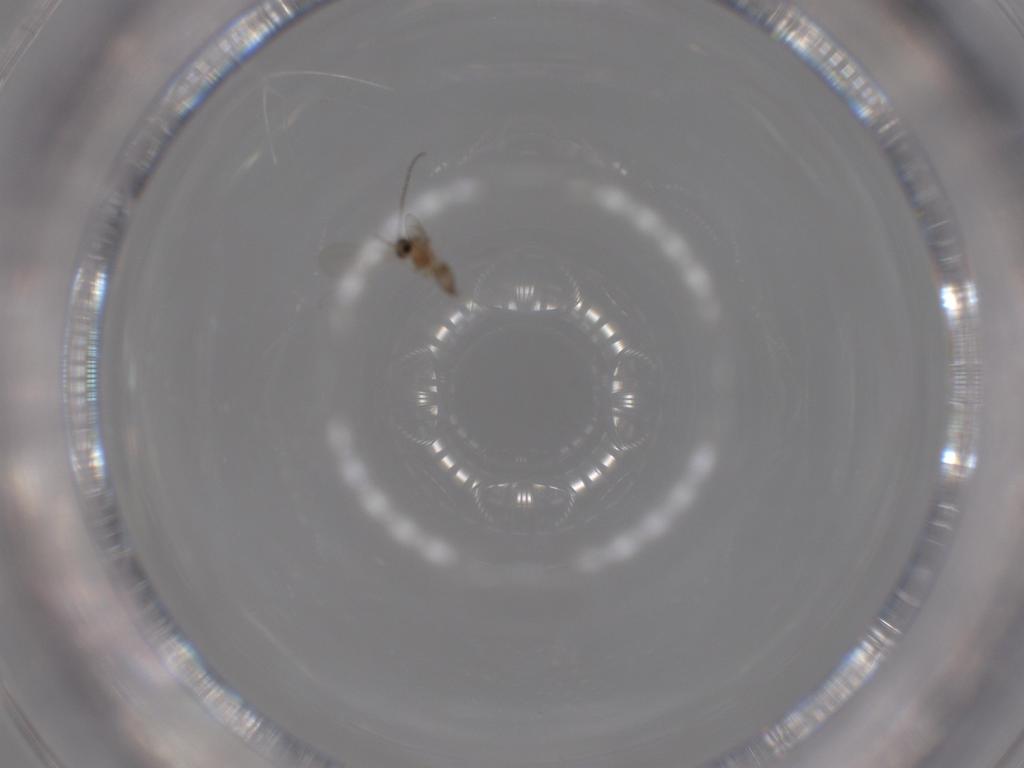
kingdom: Animalia
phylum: Arthropoda
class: Insecta
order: Diptera
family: Cecidomyiidae
